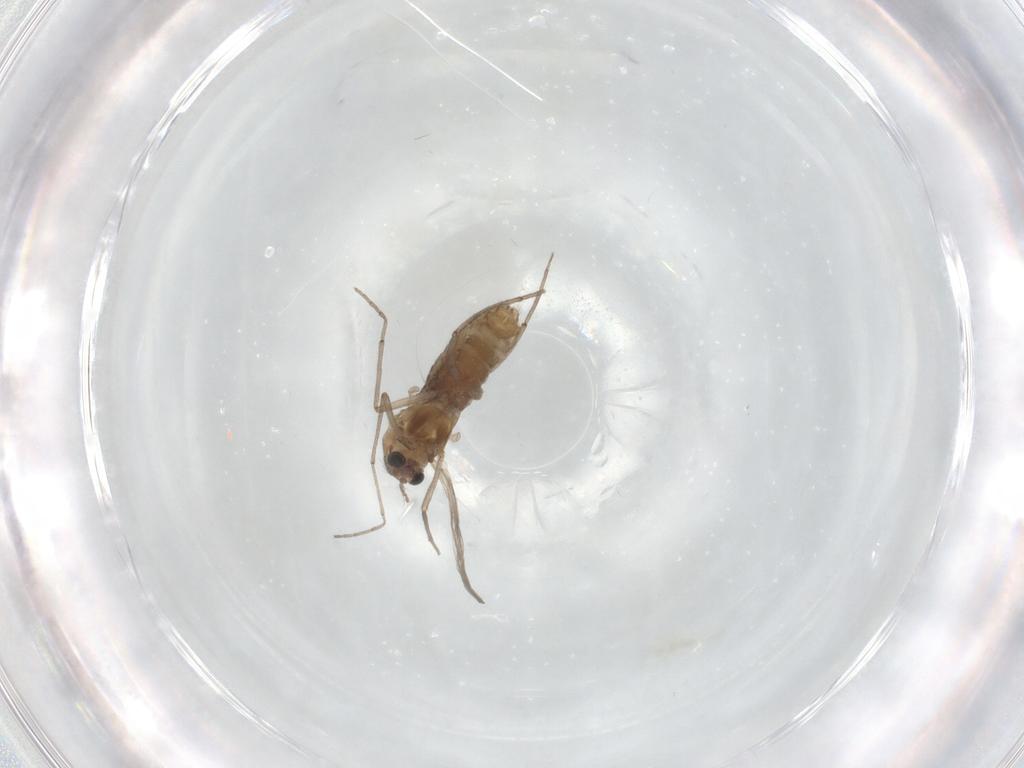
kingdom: Animalia
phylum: Arthropoda
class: Insecta
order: Diptera
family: Chironomidae
